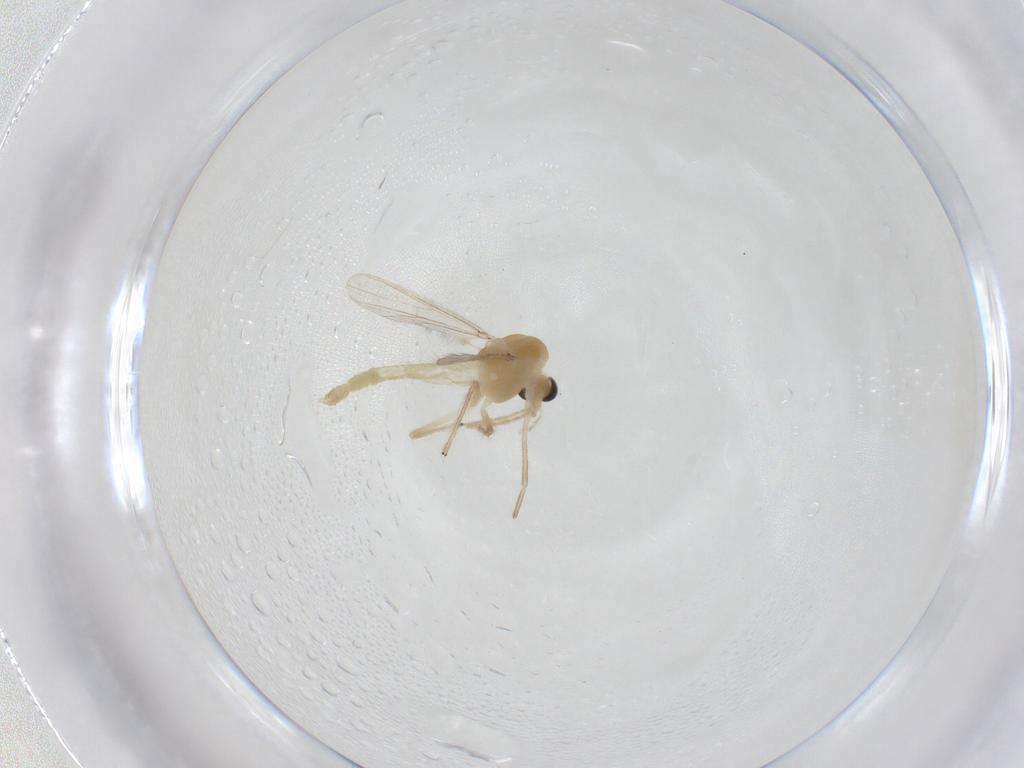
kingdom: Animalia
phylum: Arthropoda
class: Insecta
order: Diptera
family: Chironomidae
